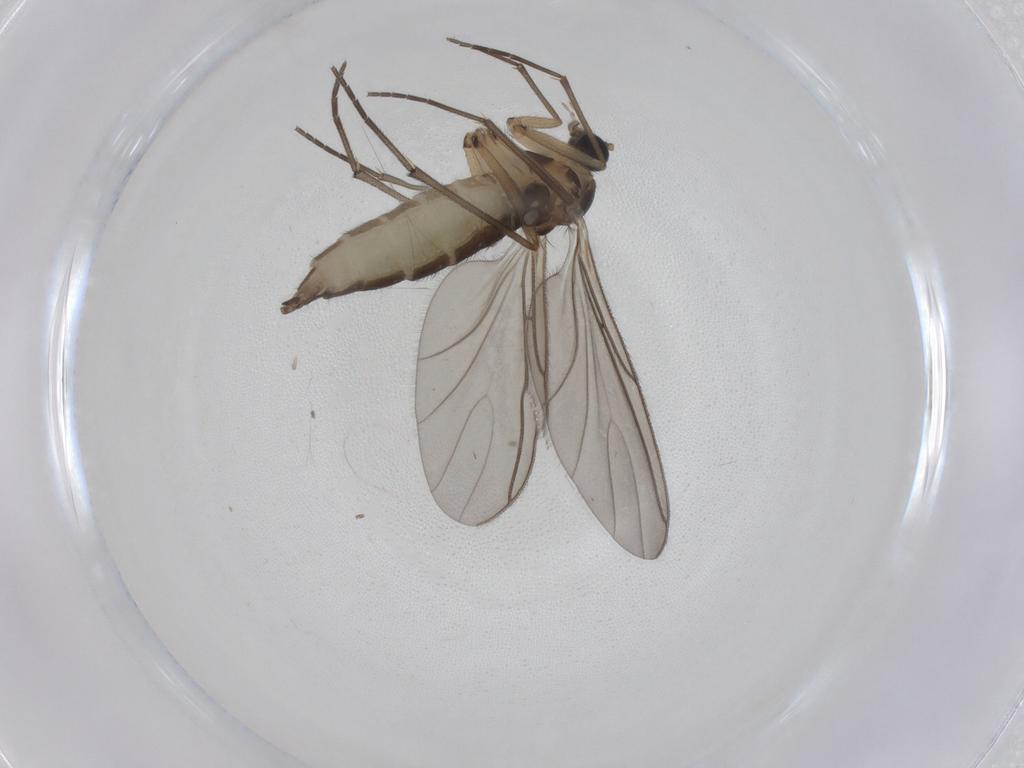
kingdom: Animalia
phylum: Arthropoda
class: Insecta
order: Diptera
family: Sciaridae
